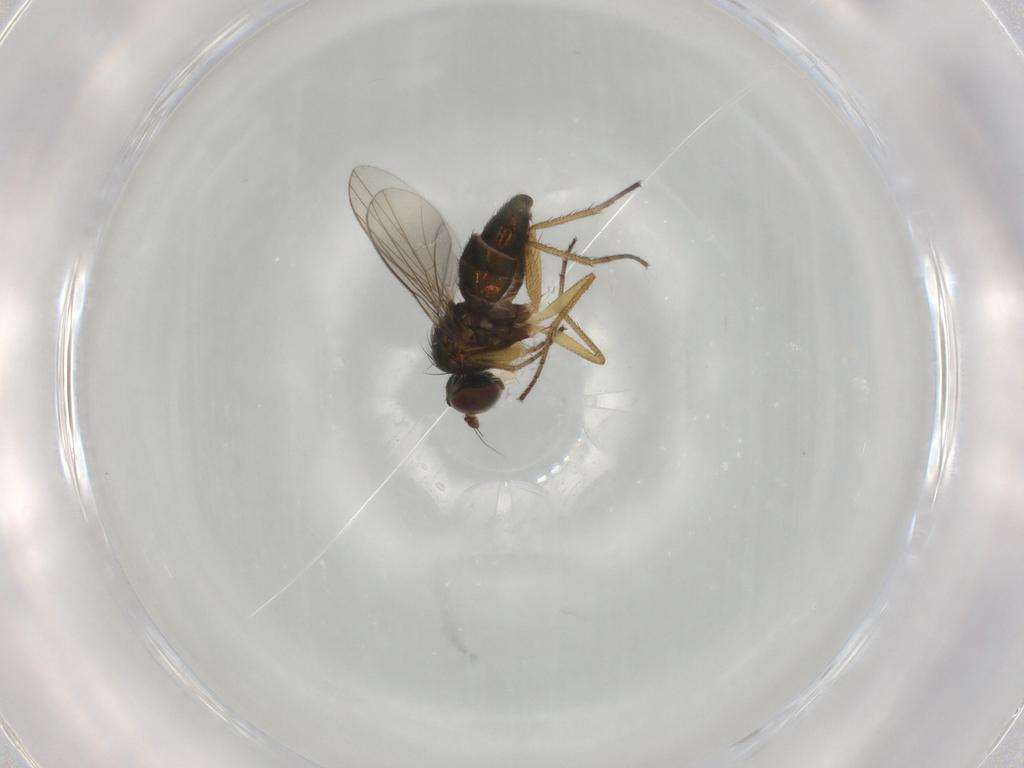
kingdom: Animalia
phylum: Arthropoda
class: Insecta
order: Diptera
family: Dolichopodidae
